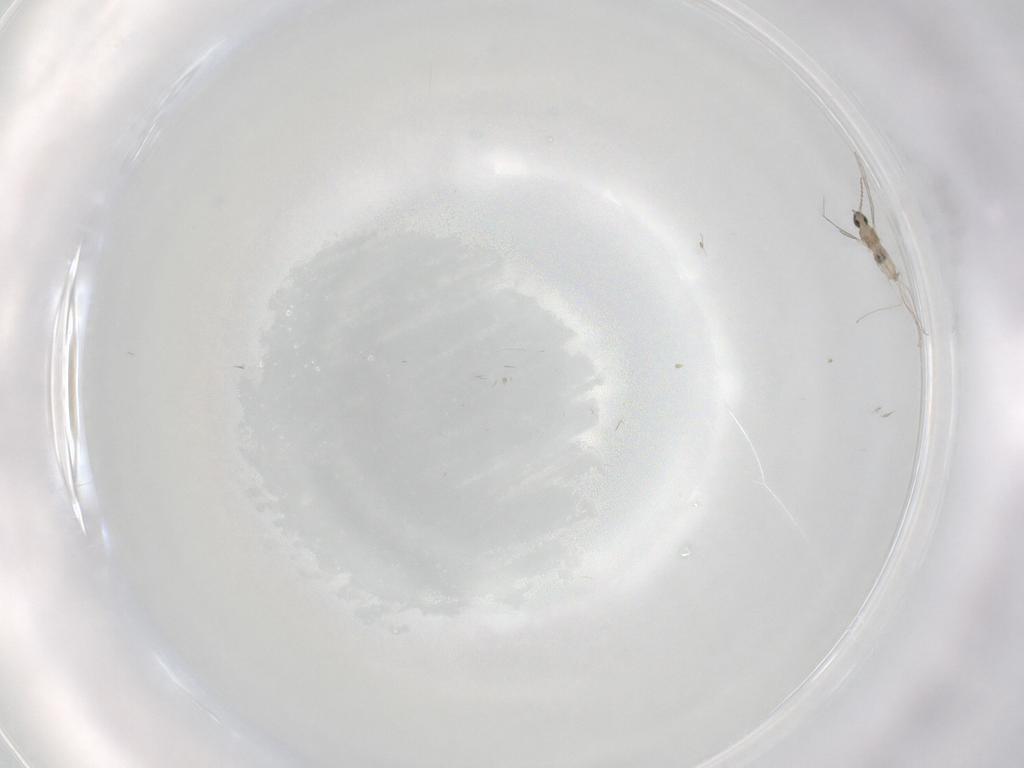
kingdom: Animalia
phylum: Arthropoda
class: Insecta
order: Diptera
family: Cecidomyiidae
